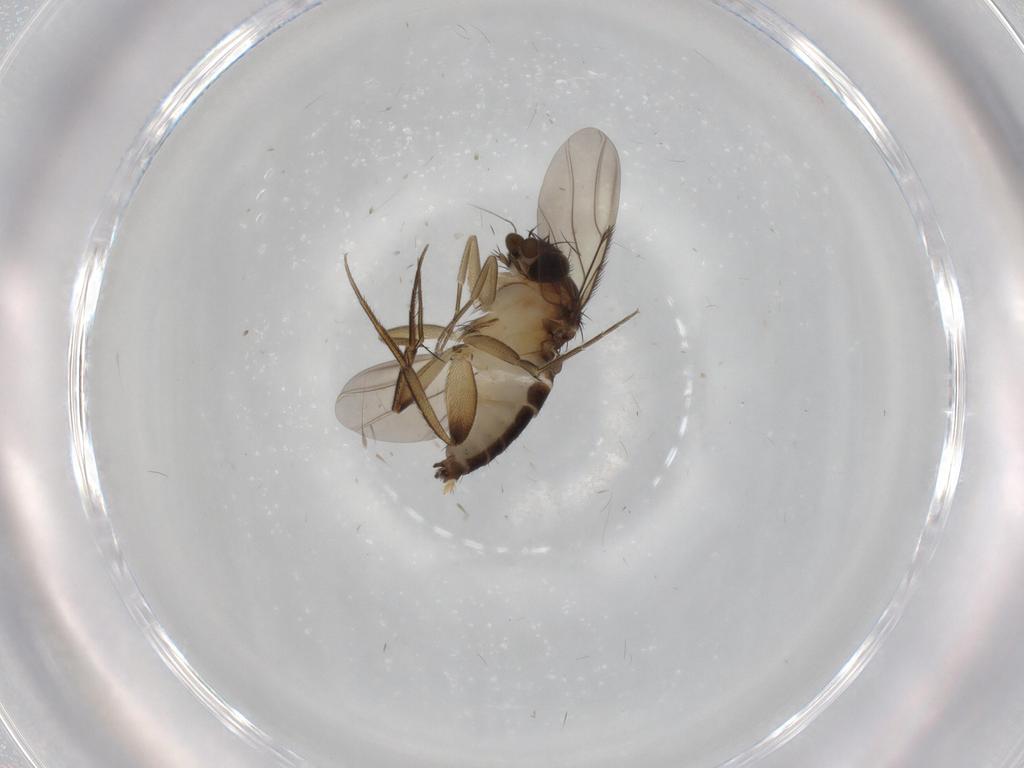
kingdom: Animalia
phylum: Arthropoda
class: Insecta
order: Diptera
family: Phoridae
